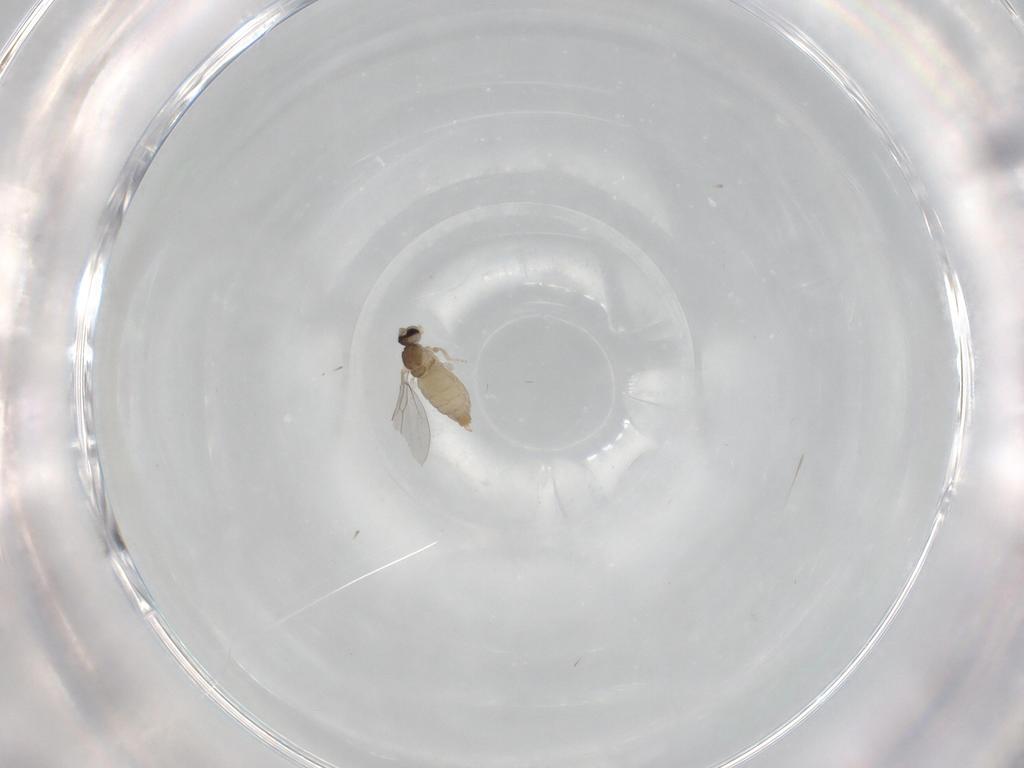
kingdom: Animalia
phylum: Arthropoda
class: Insecta
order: Diptera
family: Cecidomyiidae
